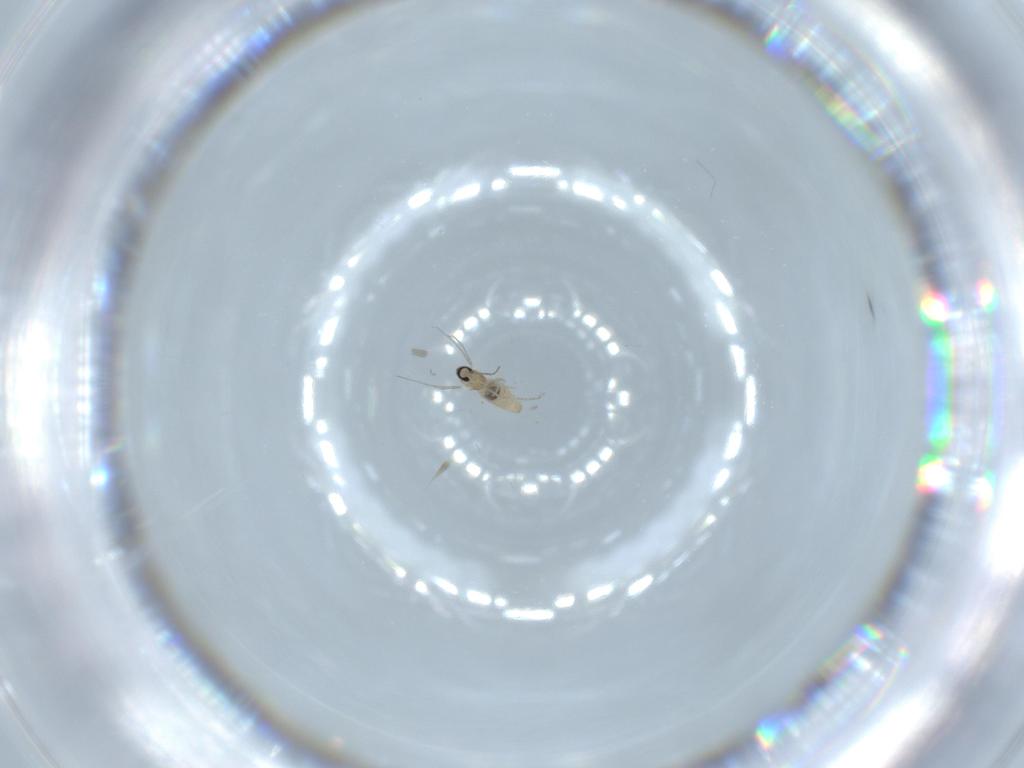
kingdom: Animalia
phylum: Arthropoda
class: Insecta
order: Diptera
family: Cecidomyiidae
